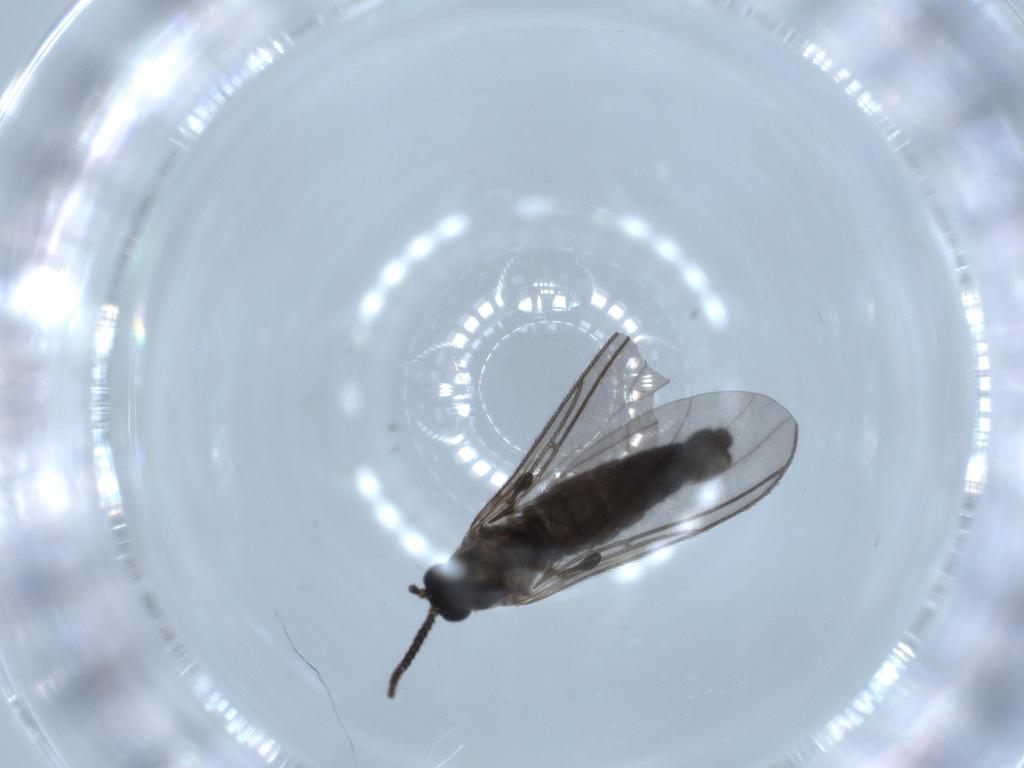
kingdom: Animalia
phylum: Arthropoda
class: Insecta
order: Diptera
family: Sciaridae
